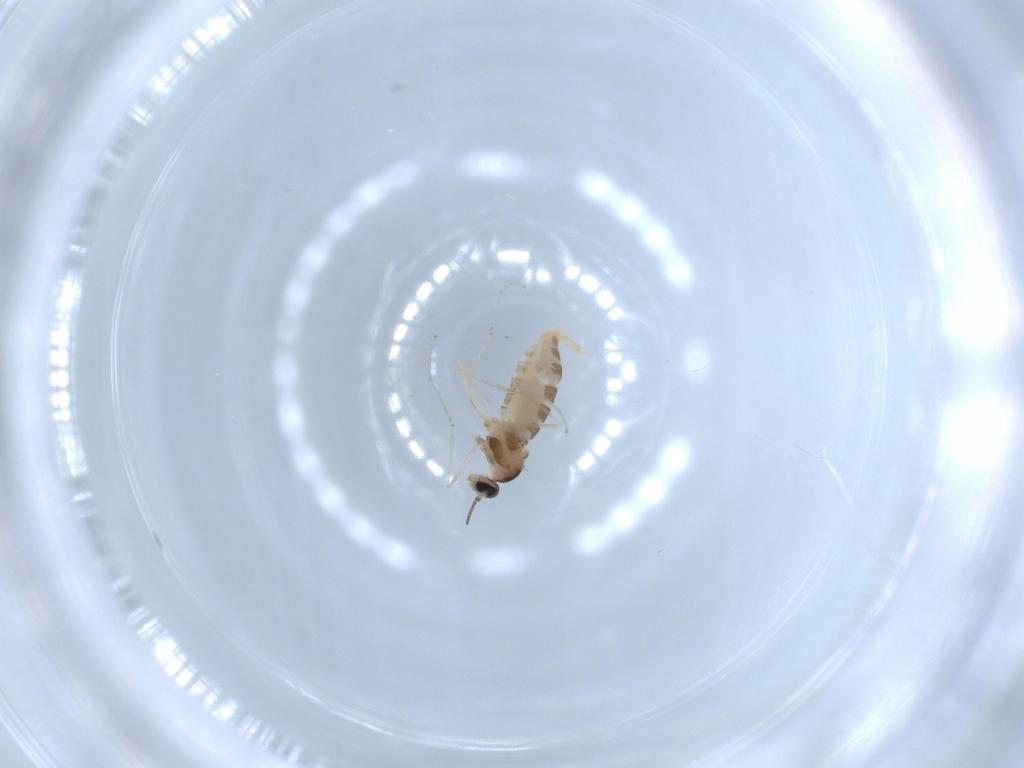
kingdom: Animalia
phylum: Arthropoda
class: Insecta
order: Diptera
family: Cecidomyiidae
